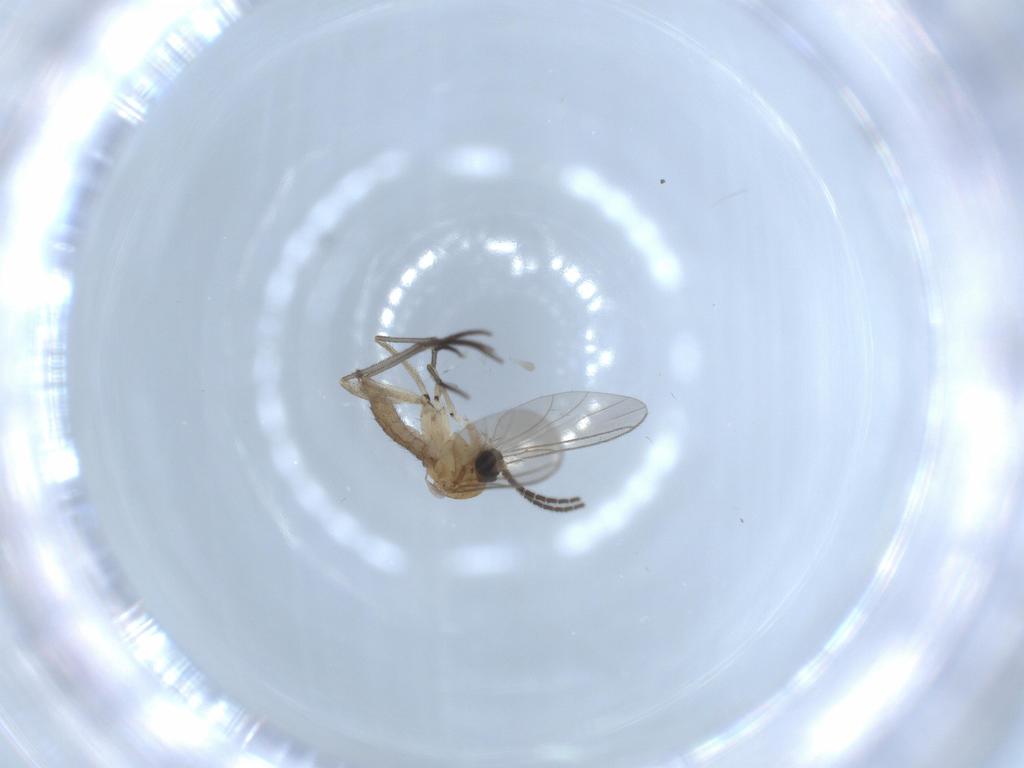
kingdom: Animalia
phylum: Arthropoda
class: Insecta
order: Diptera
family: Sciaridae
